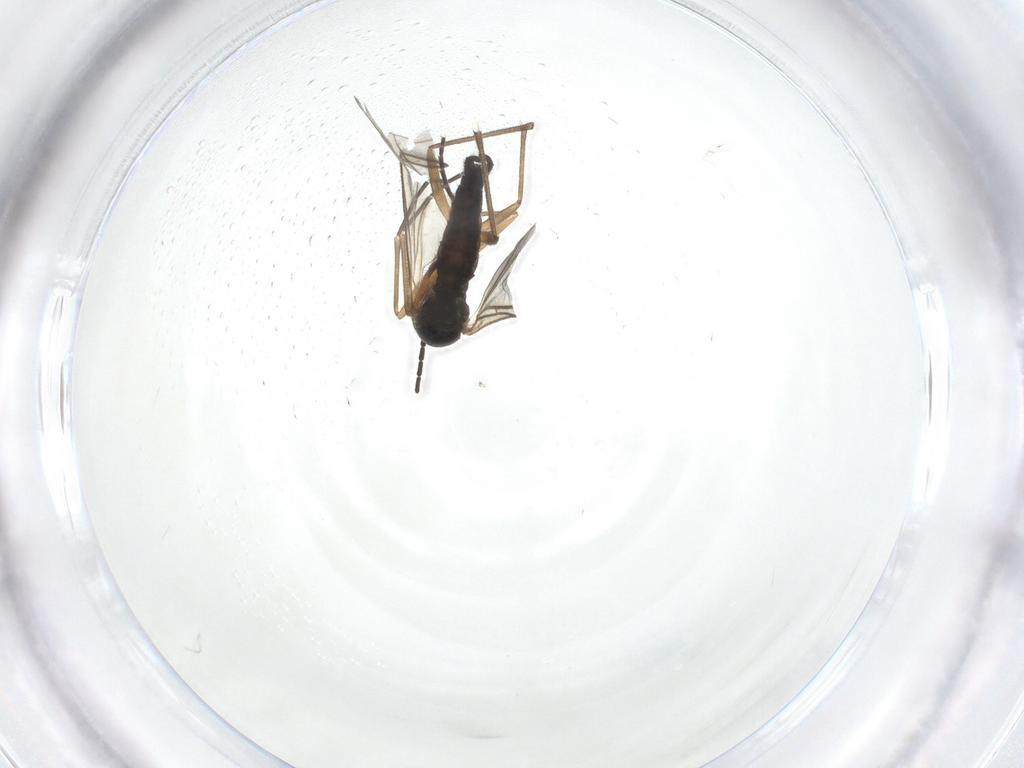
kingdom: Animalia
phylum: Arthropoda
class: Insecta
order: Diptera
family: Sciaridae
